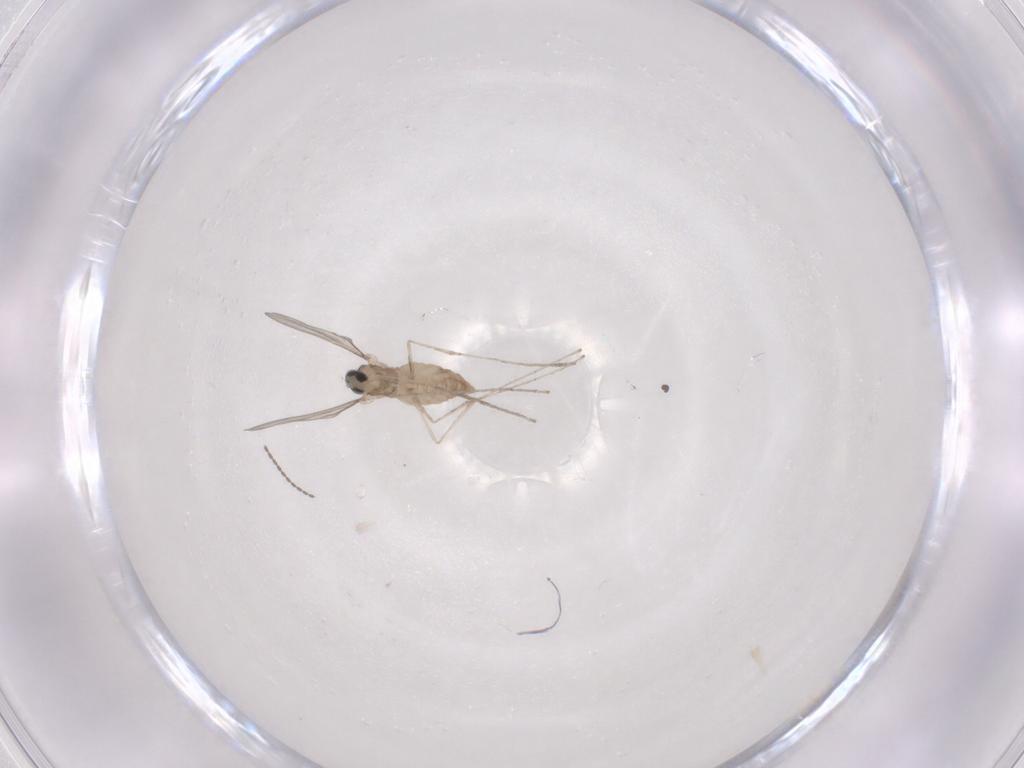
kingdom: Animalia
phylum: Arthropoda
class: Insecta
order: Diptera
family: Cecidomyiidae
